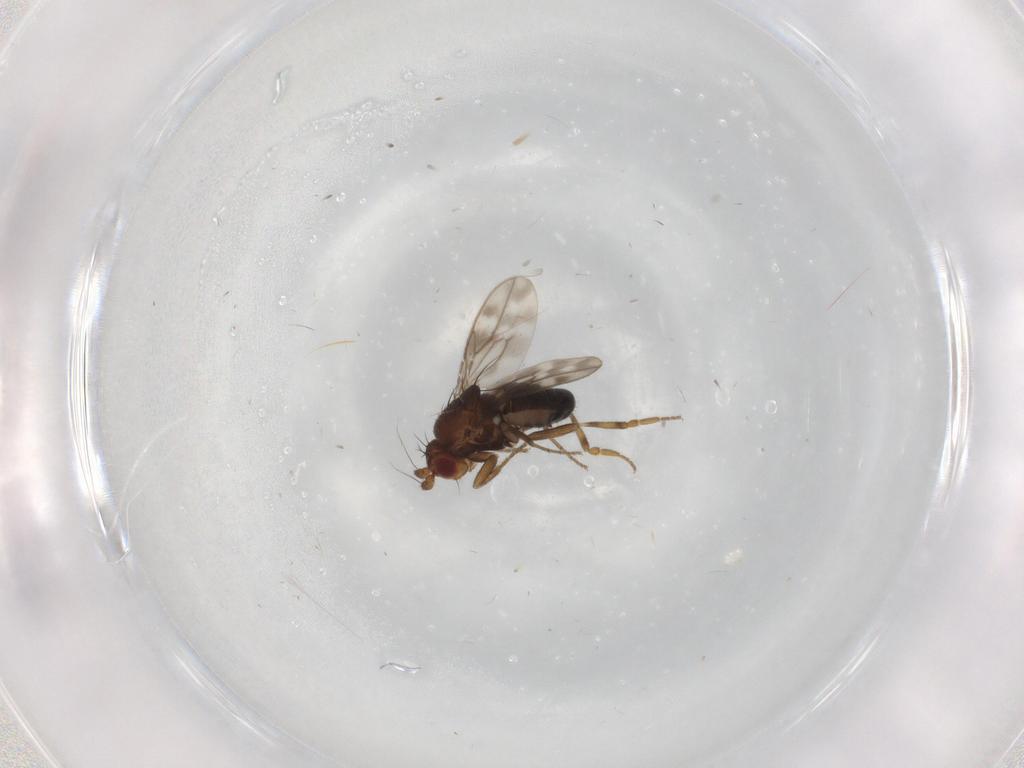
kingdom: Animalia
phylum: Arthropoda
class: Insecta
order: Diptera
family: Sphaeroceridae
